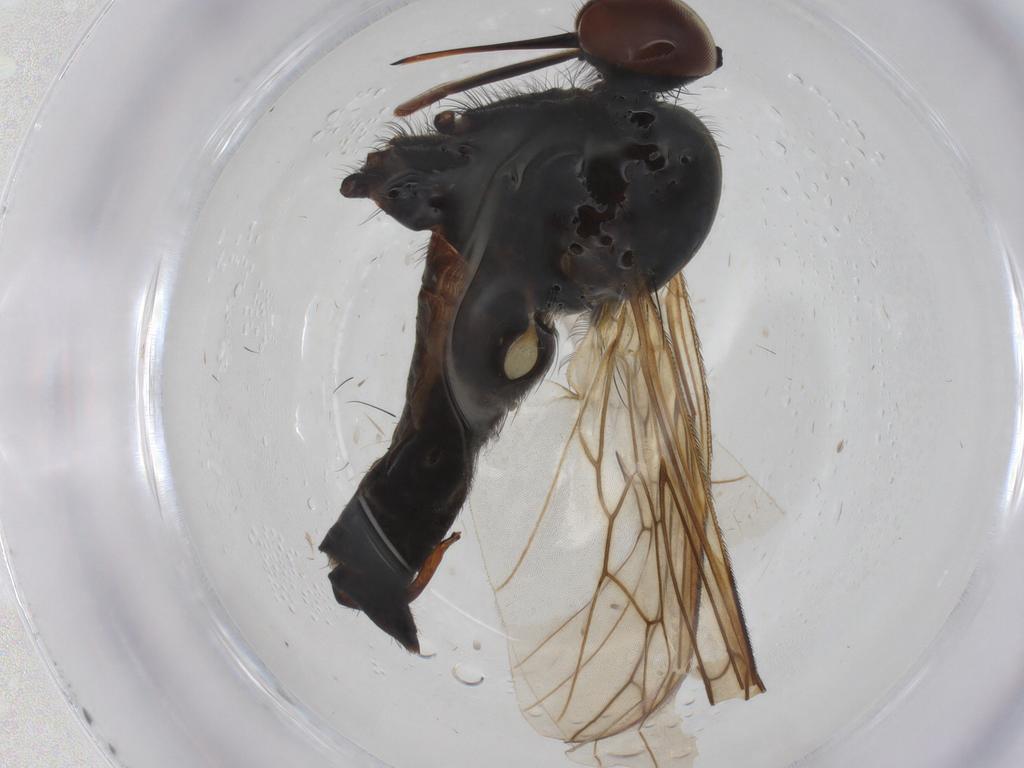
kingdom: Animalia
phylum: Arthropoda
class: Insecta
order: Diptera
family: Empididae
